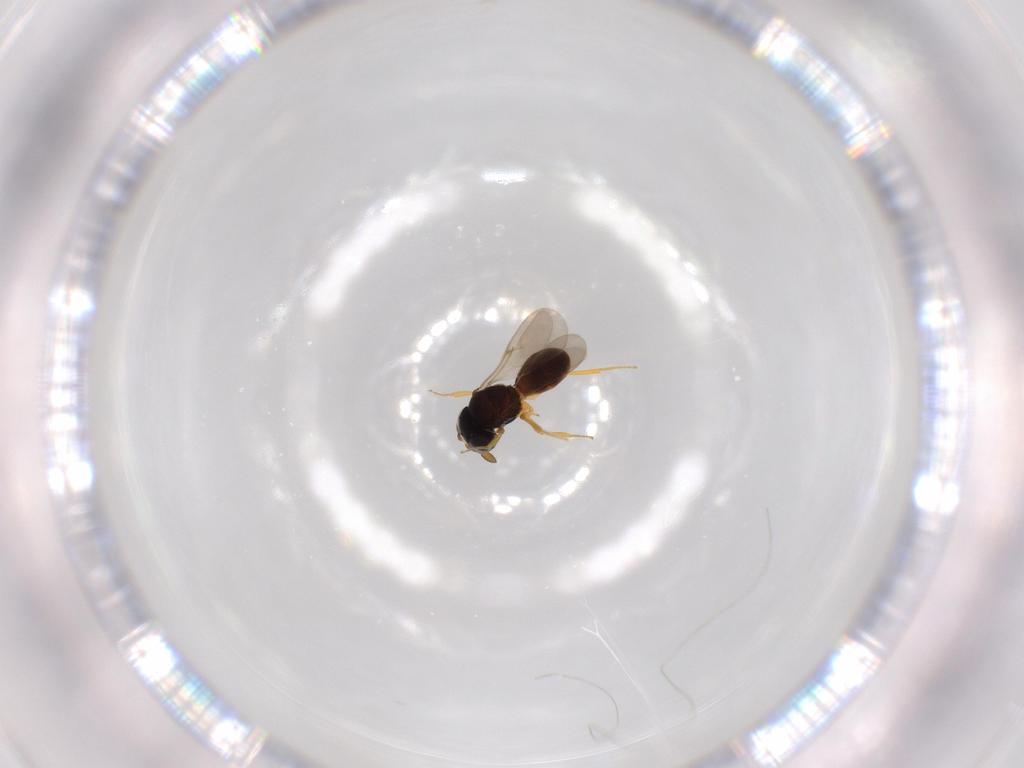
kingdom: Animalia
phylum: Arthropoda
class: Insecta
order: Hymenoptera
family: Scelionidae
